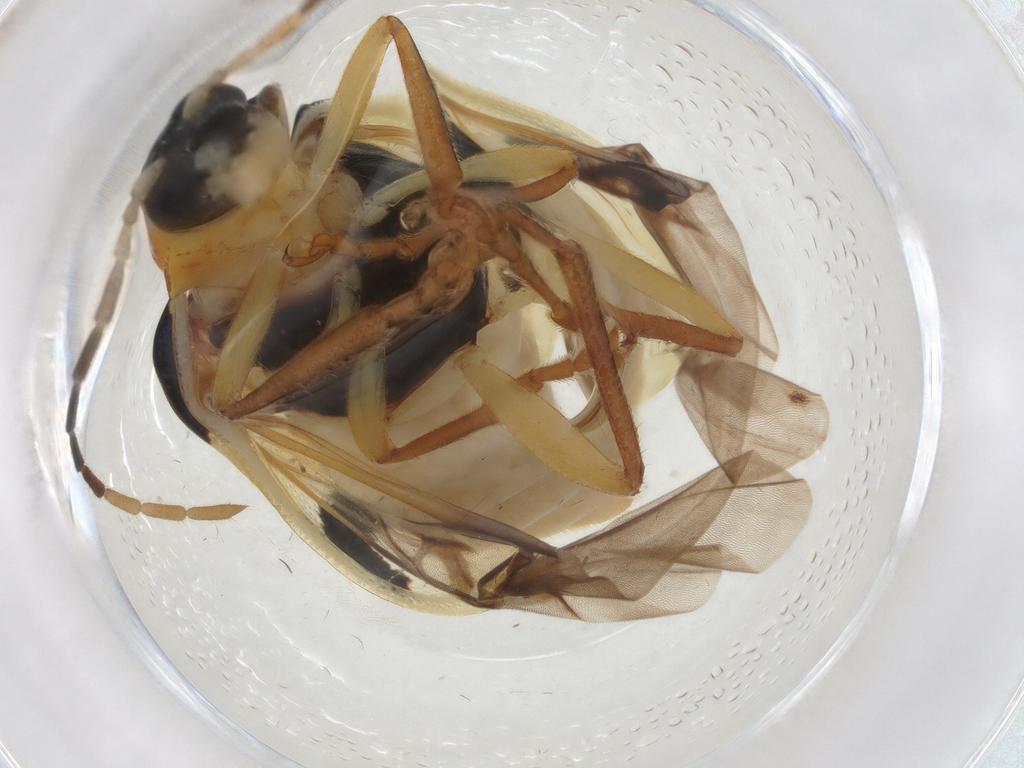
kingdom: Animalia
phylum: Arthropoda
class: Insecta
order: Coleoptera
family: Chrysomelidae
